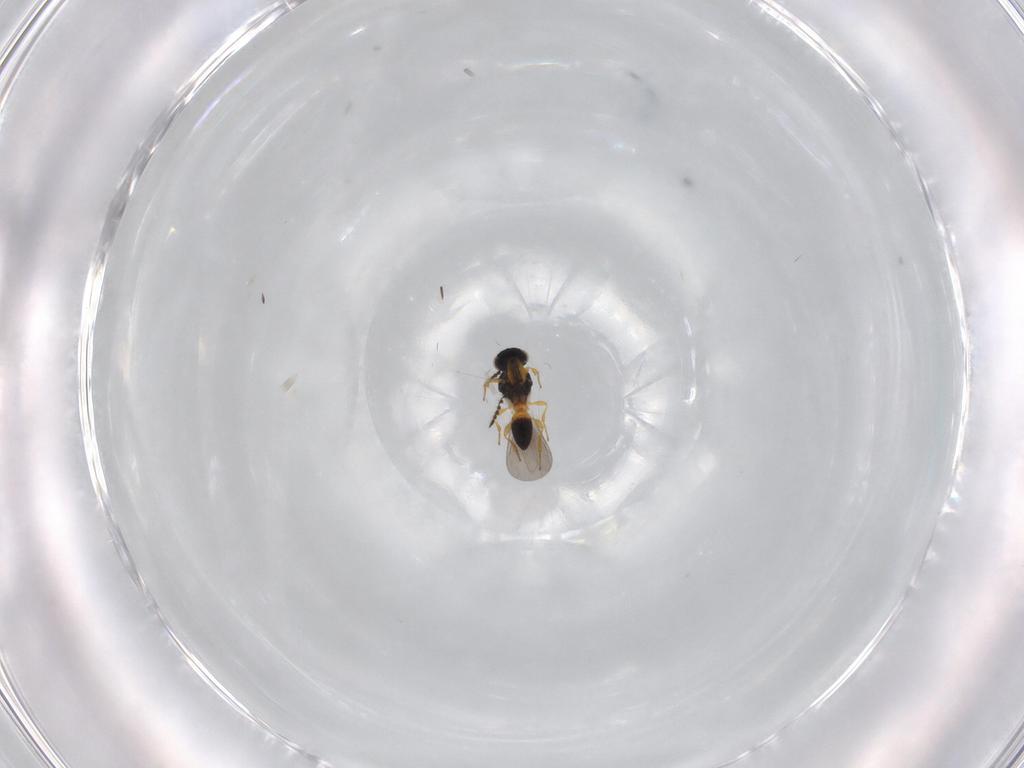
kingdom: Animalia
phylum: Arthropoda
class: Insecta
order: Hymenoptera
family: Platygastridae
